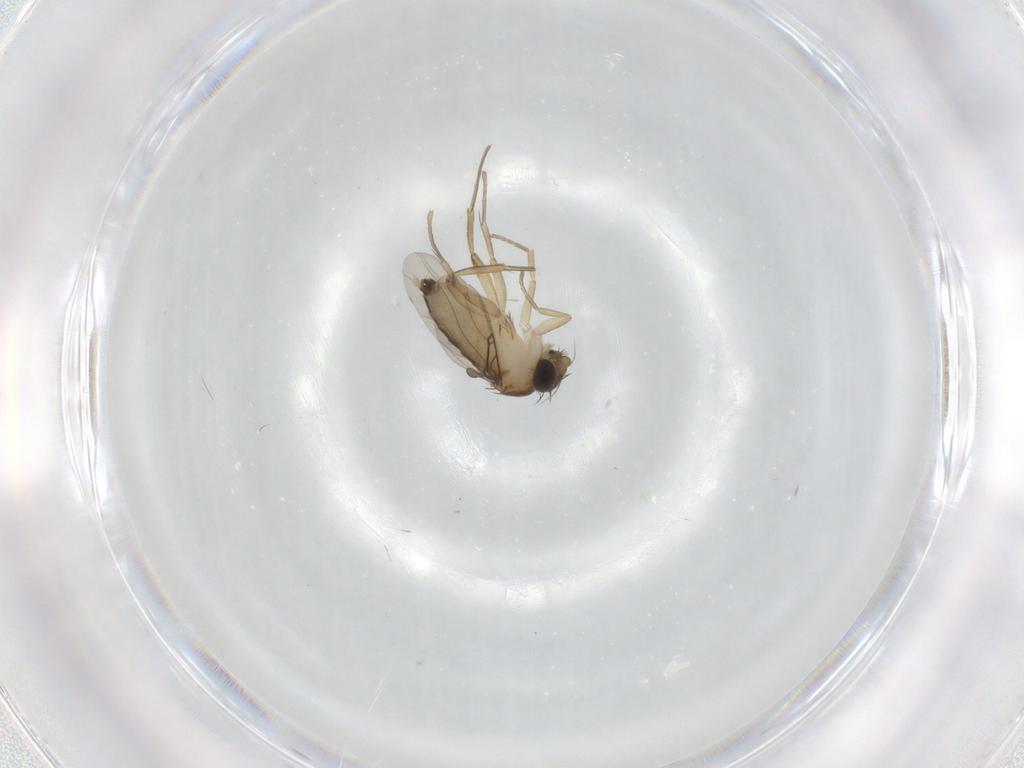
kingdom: Animalia
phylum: Arthropoda
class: Insecta
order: Diptera
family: Phoridae
